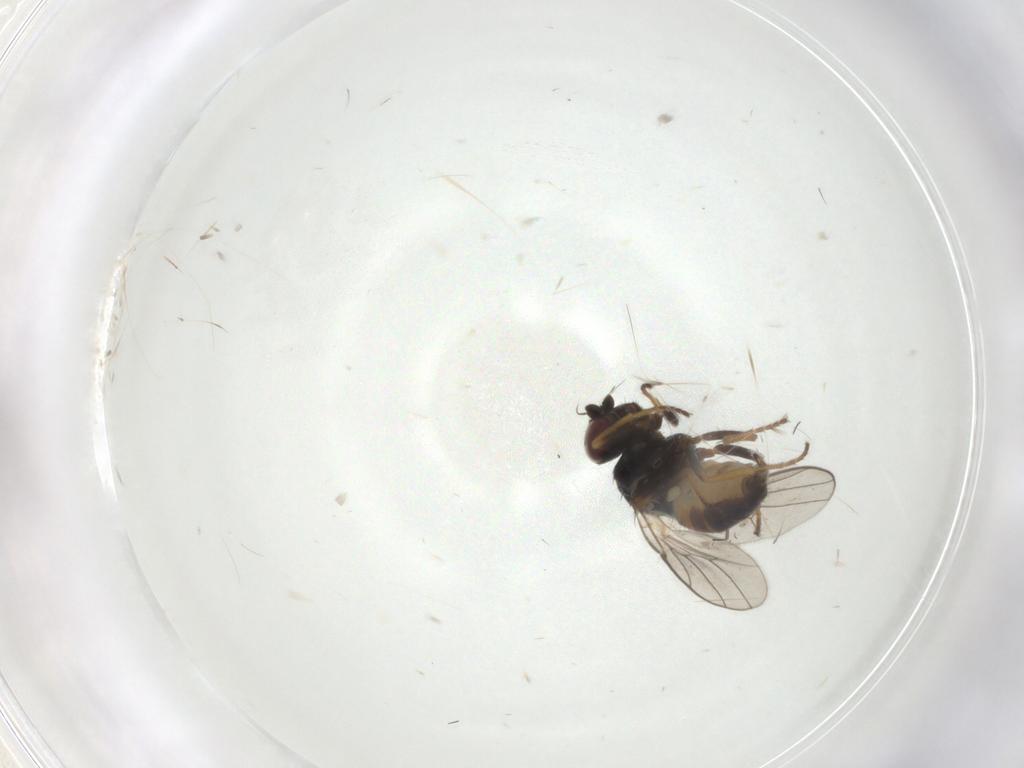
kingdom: Animalia
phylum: Arthropoda
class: Insecta
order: Diptera
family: Chloropidae
